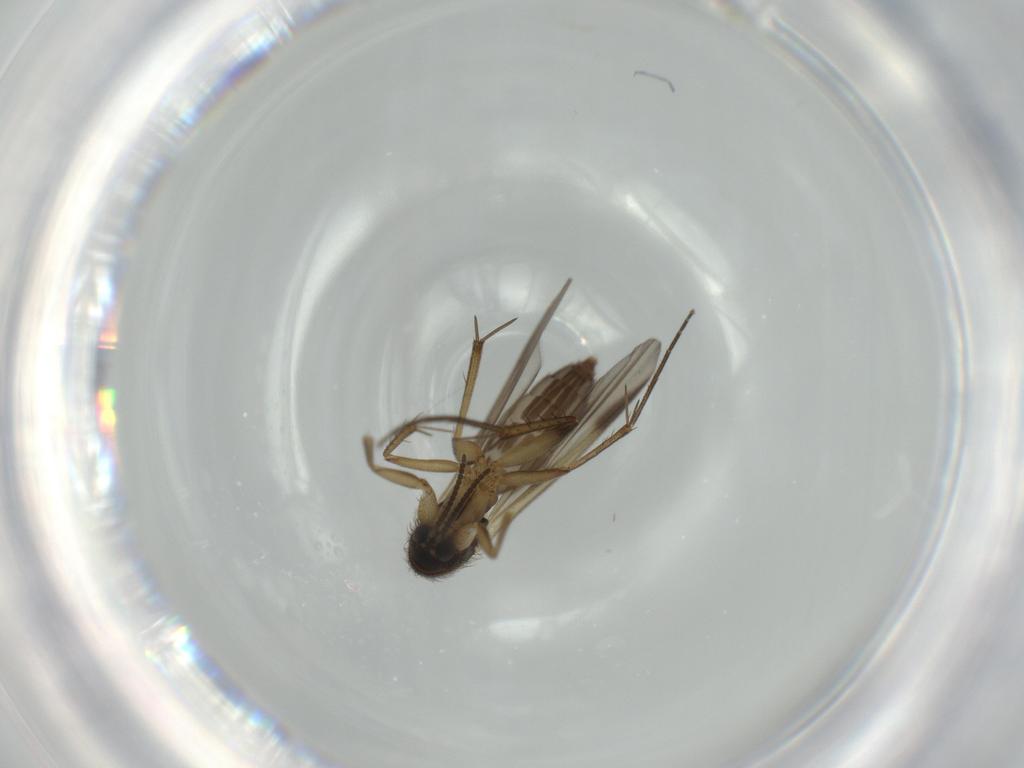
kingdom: Animalia
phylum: Arthropoda
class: Insecta
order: Diptera
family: Mycetophilidae
